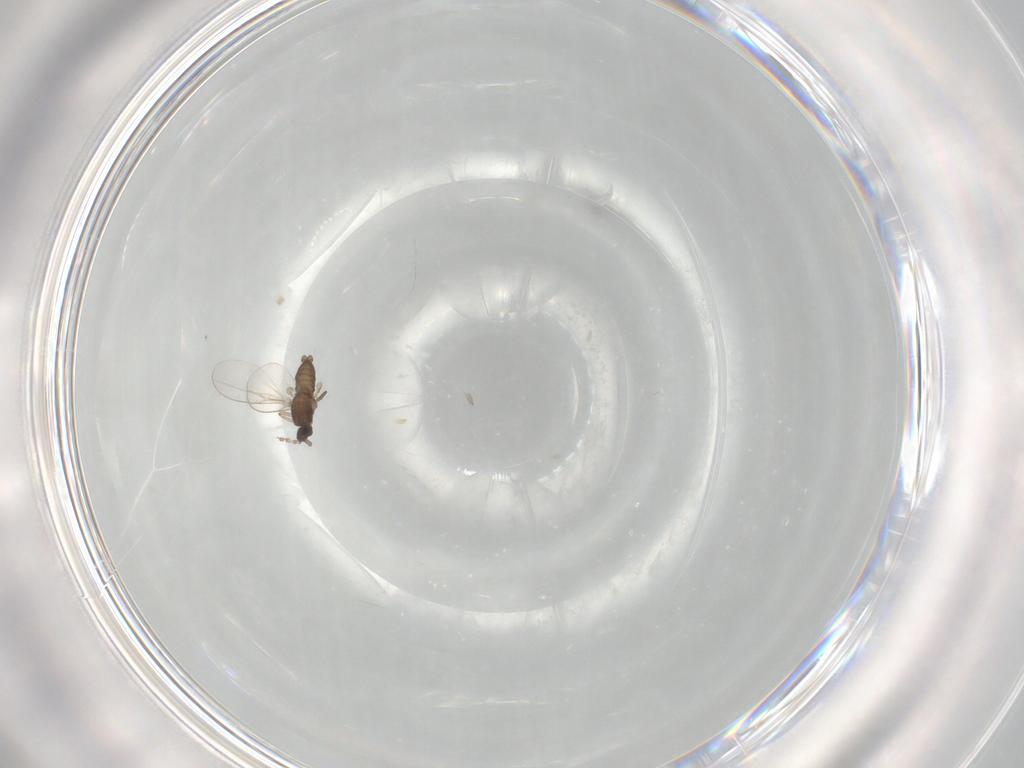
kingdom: Animalia
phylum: Arthropoda
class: Insecta
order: Diptera
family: Cecidomyiidae
